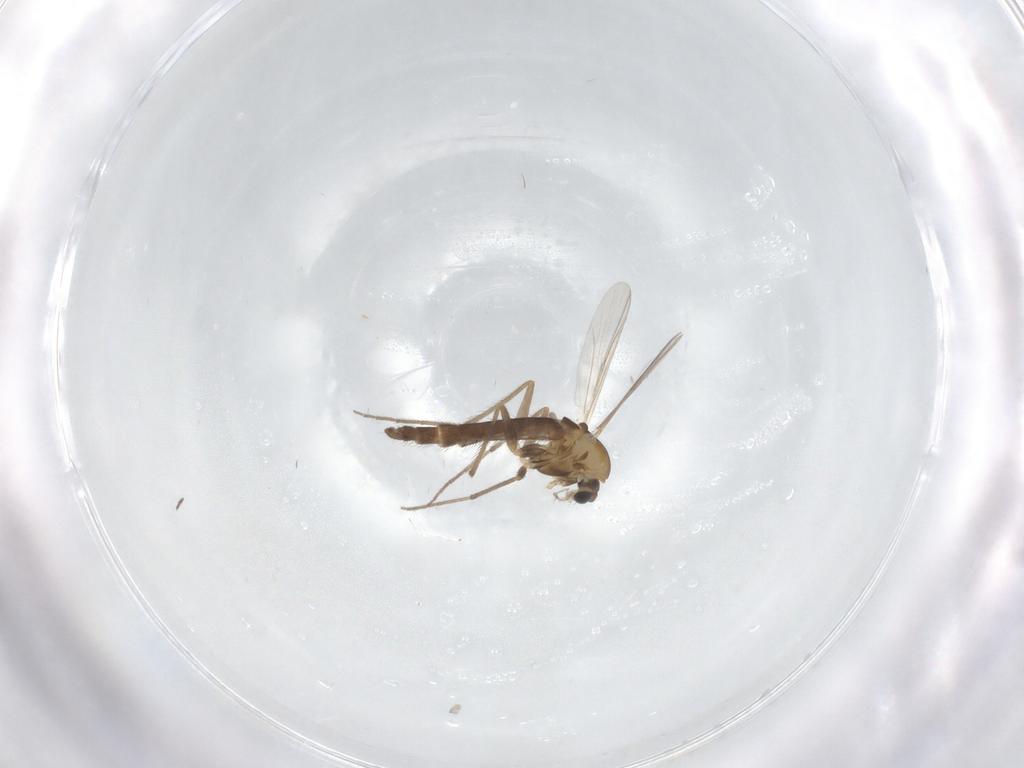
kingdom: Animalia
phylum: Arthropoda
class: Insecta
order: Diptera
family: Chironomidae
